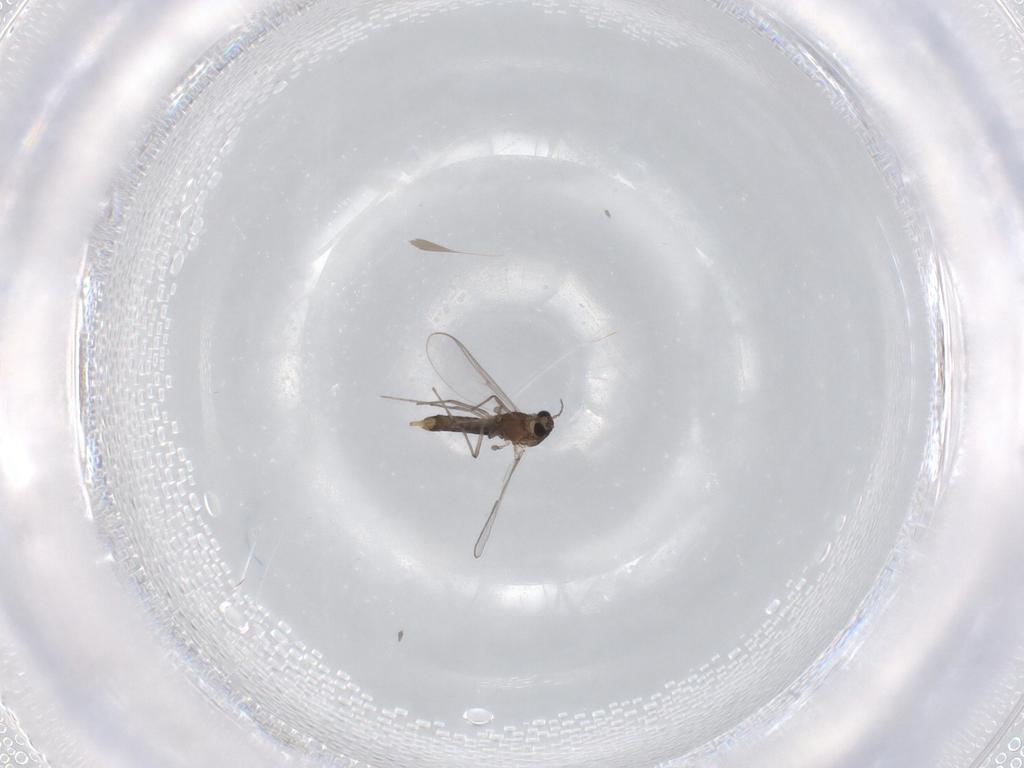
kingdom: Animalia
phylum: Arthropoda
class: Insecta
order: Diptera
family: Chironomidae
